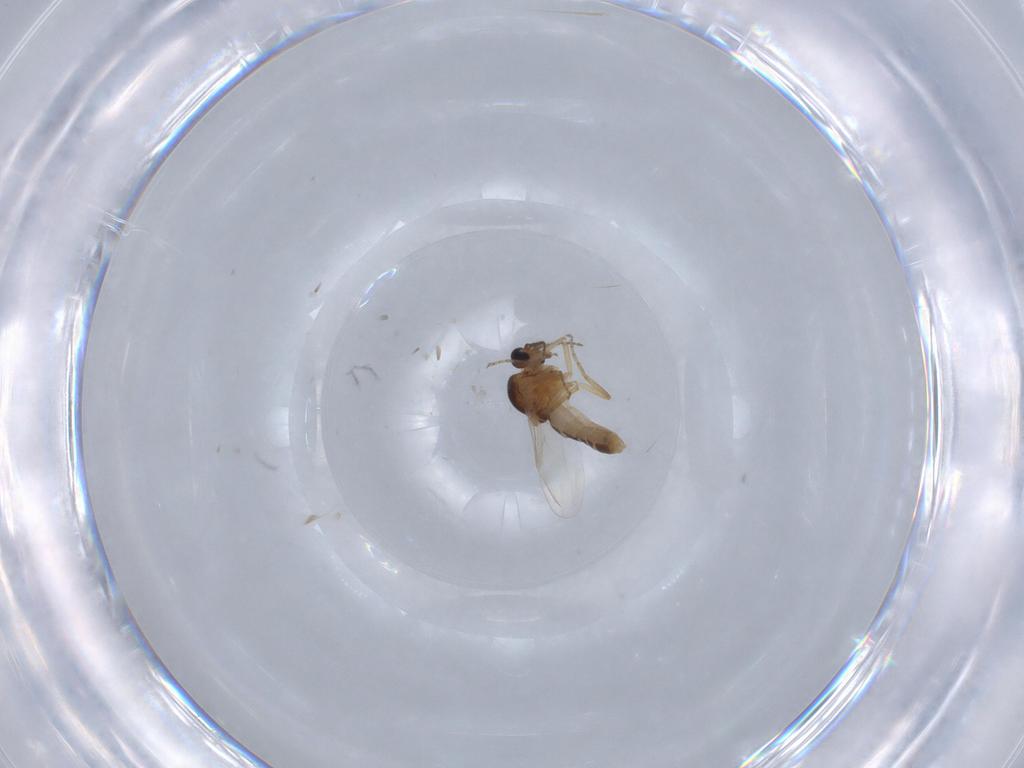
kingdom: Animalia
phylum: Arthropoda
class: Insecta
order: Diptera
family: Ceratopogonidae
